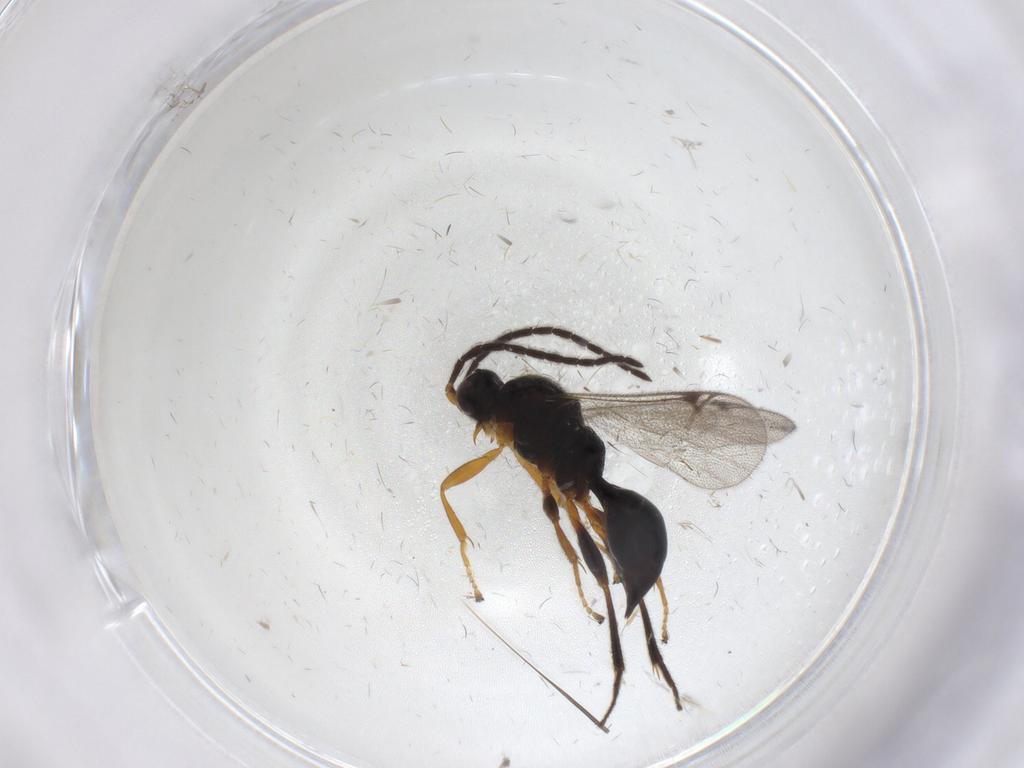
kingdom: Animalia
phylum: Arthropoda
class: Insecta
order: Hymenoptera
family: Proctotrupidae
